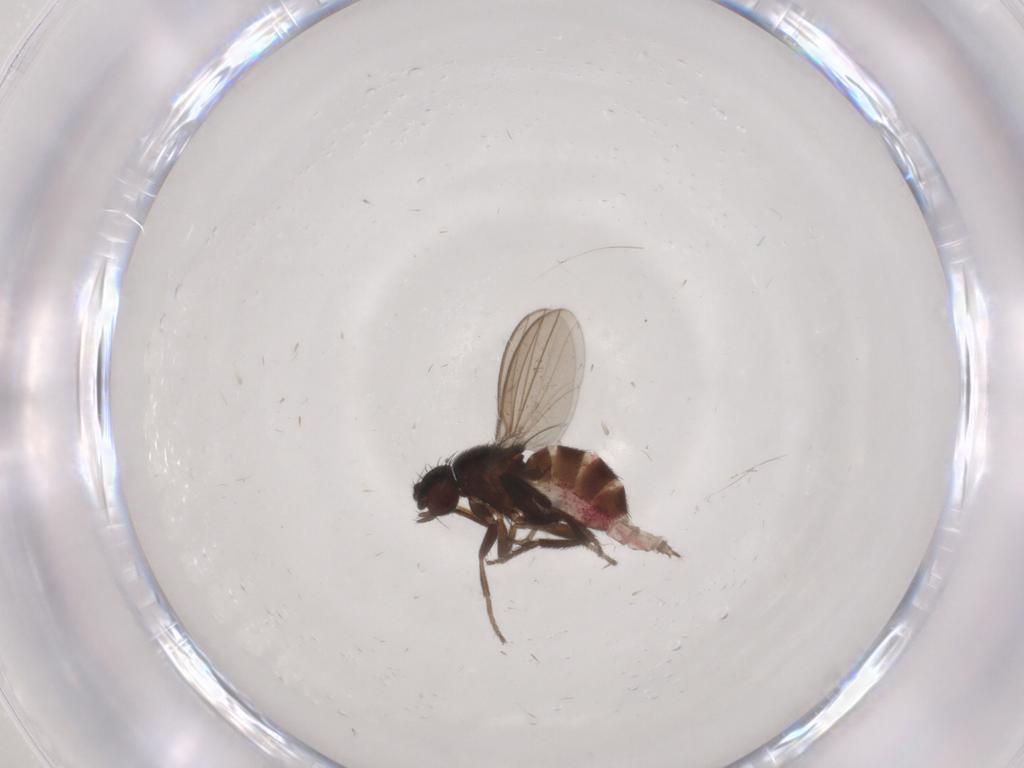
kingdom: Animalia
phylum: Arthropoda
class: Insecta
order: Diptera
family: Milichiidae
